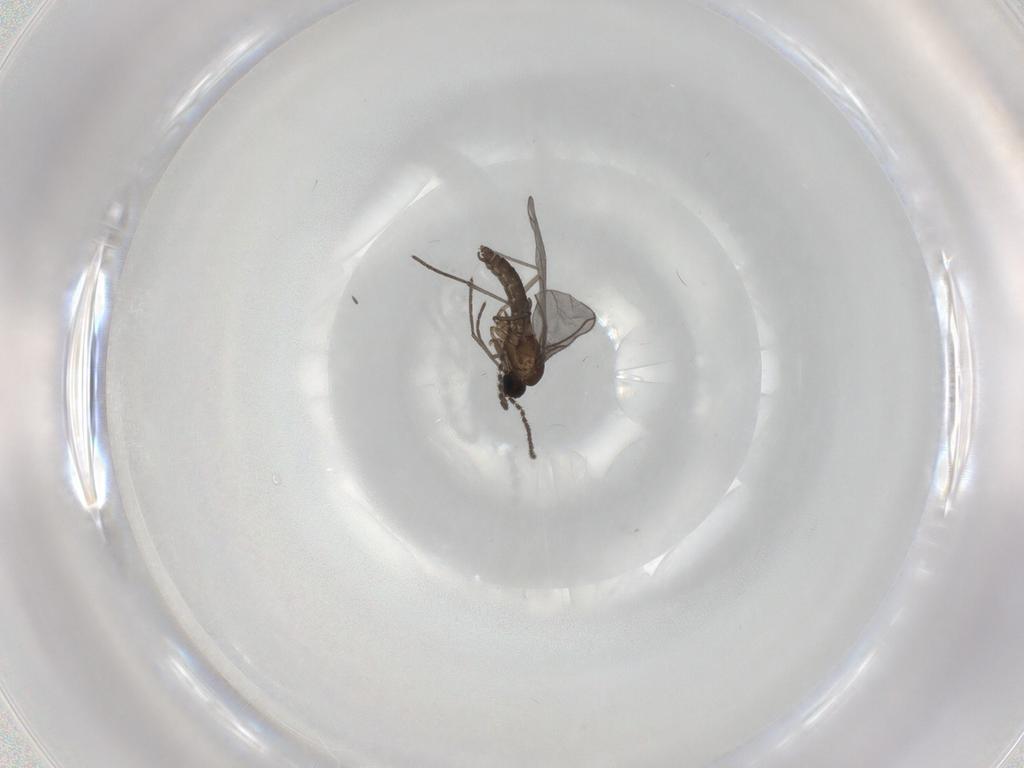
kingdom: Animalia
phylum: Arthropoda
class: Insecta
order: Diptera
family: Sciaridae
